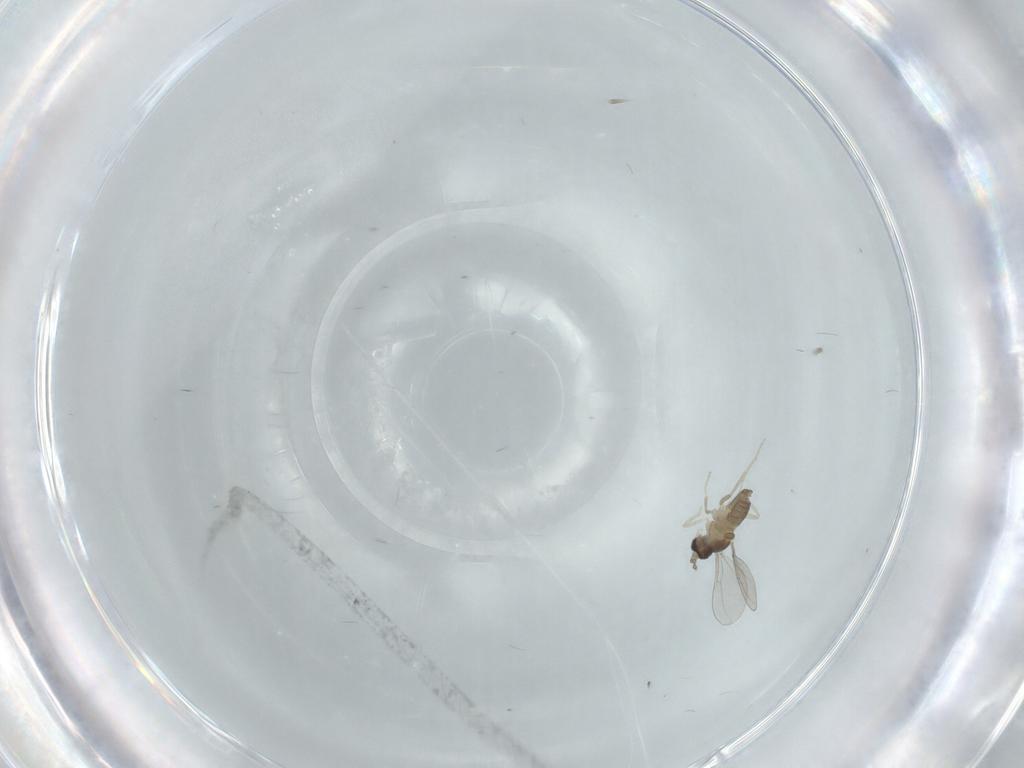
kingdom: Animalia
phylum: Arthropoda
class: Insecta
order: Diptera
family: Cecidomyiidae
